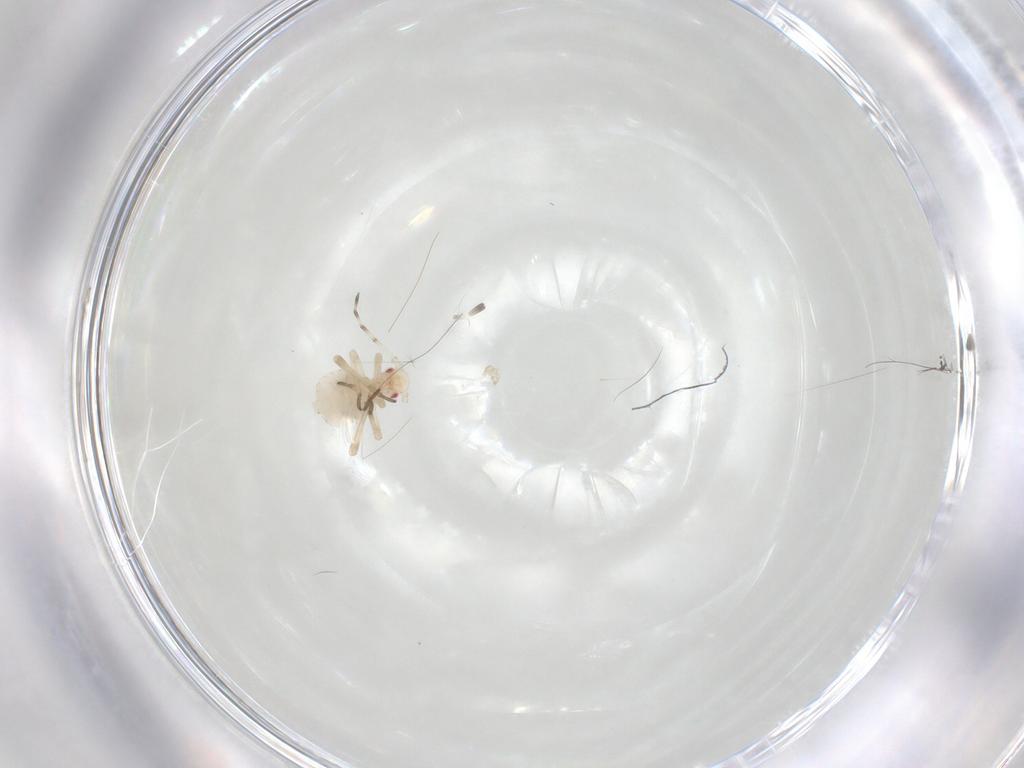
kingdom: Animalia
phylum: Arthropoda
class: Insecta
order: Hemiptera
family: Aphididae
